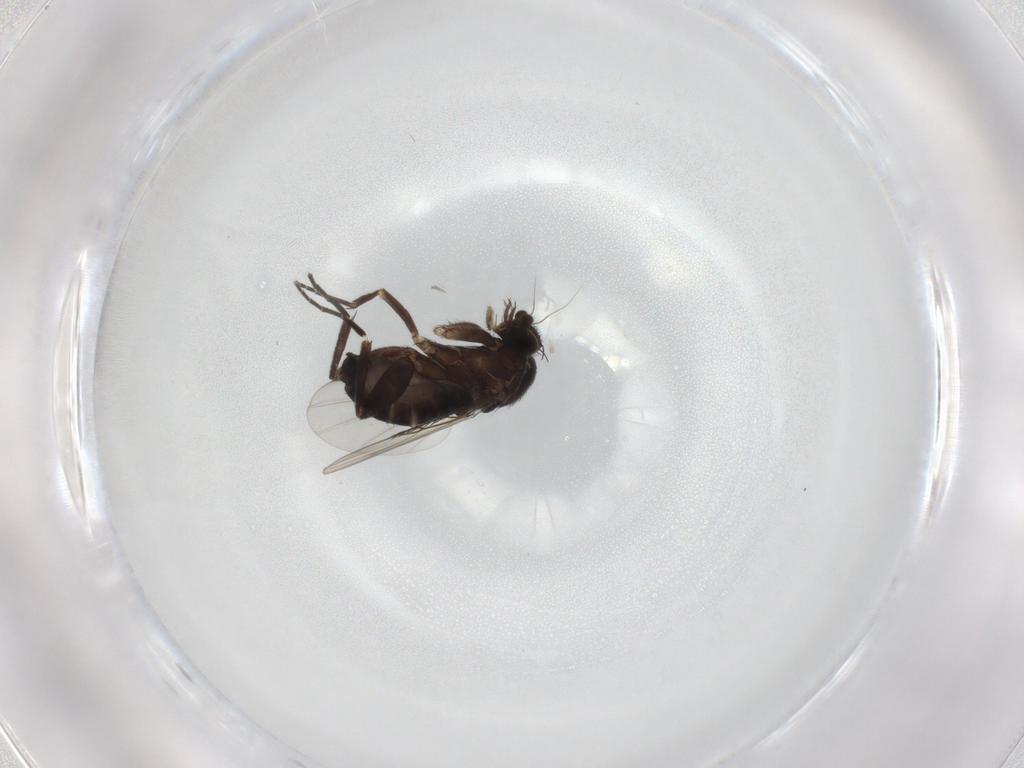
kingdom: Animalia
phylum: Arthropoda
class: Insecta
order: Diptera
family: Phoridae
